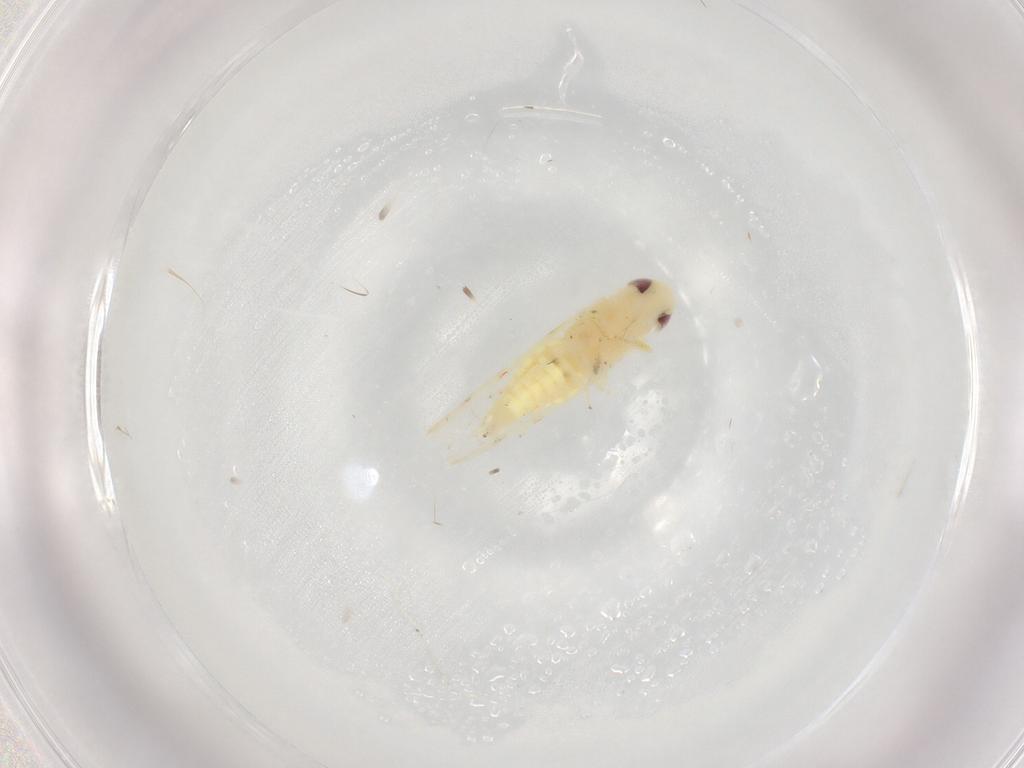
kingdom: Animalia
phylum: Arthropoda
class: Insecta
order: Hemiptera
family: Cicadellidae
